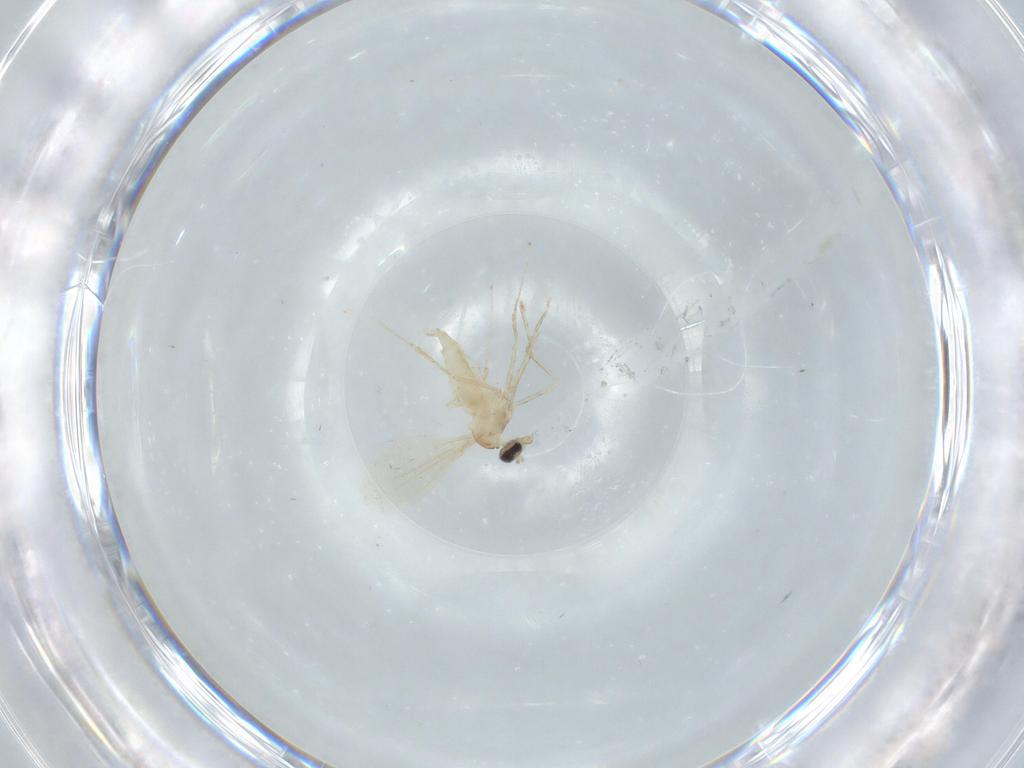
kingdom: Animalia
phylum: Arthropoda
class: Insecta
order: Diptera
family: Cecidomyiidae
